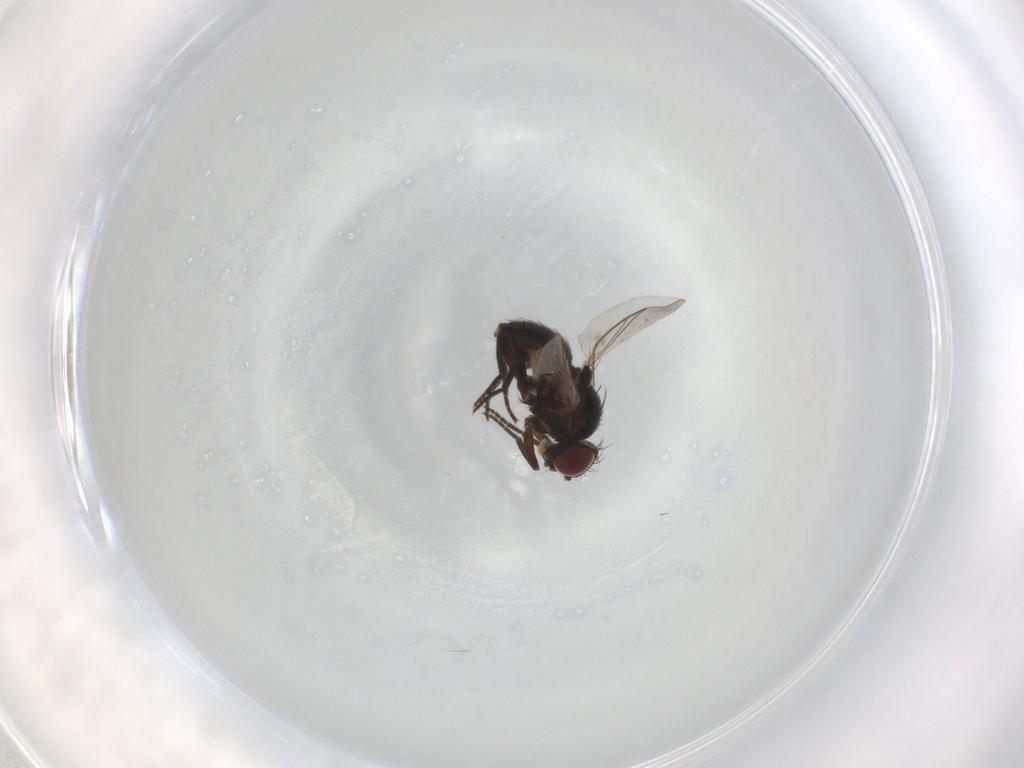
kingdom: Animalia
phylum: Arthropoda
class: Insecta
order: Diptera
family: Agromyzidae
